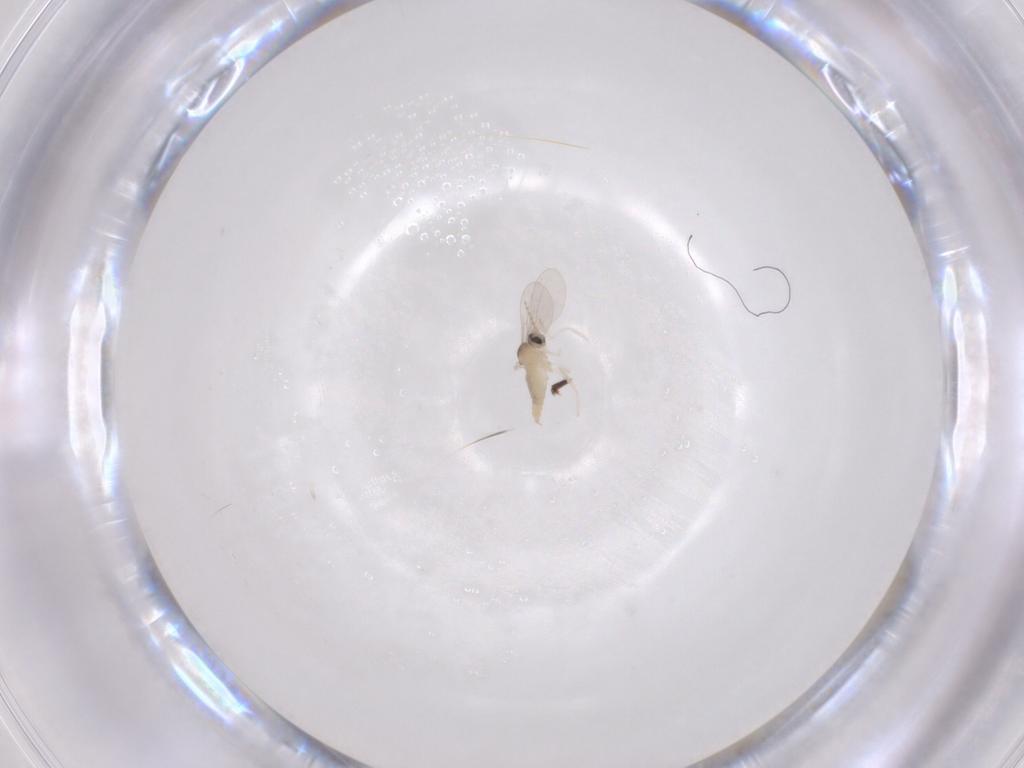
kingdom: Animalia
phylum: Arthropoda
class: Insecta
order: Diptera
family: Cecidomyiidae
